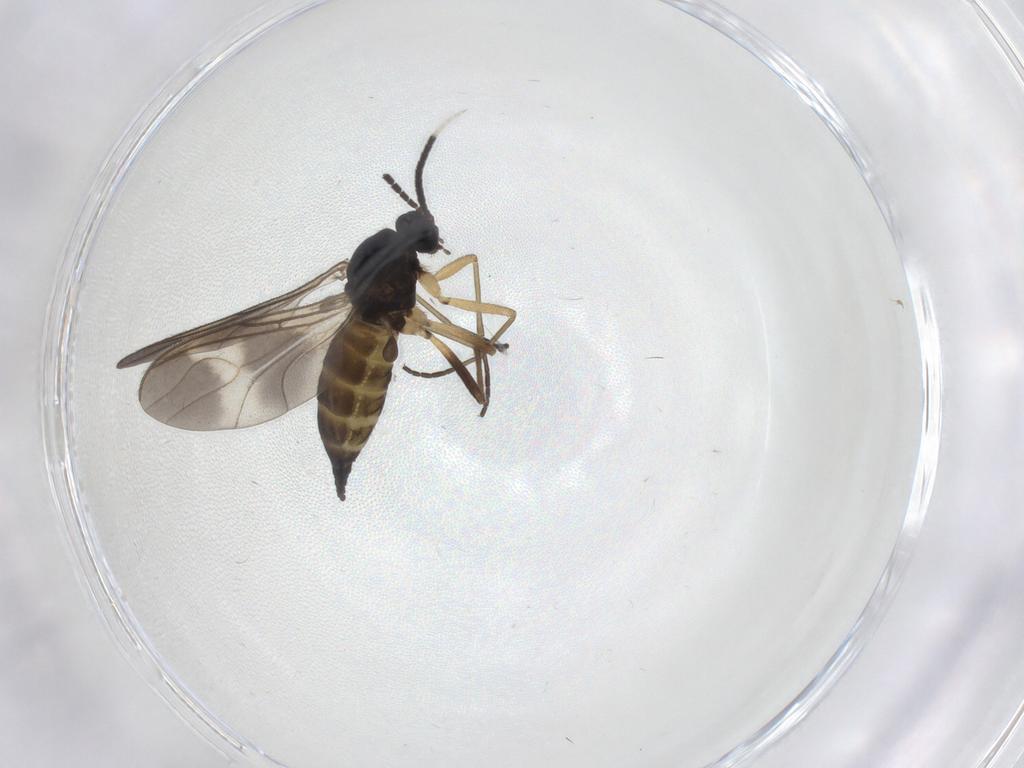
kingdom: Animalia
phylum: Arthropoda
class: Insecta
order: Diptera
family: Sciaridae
